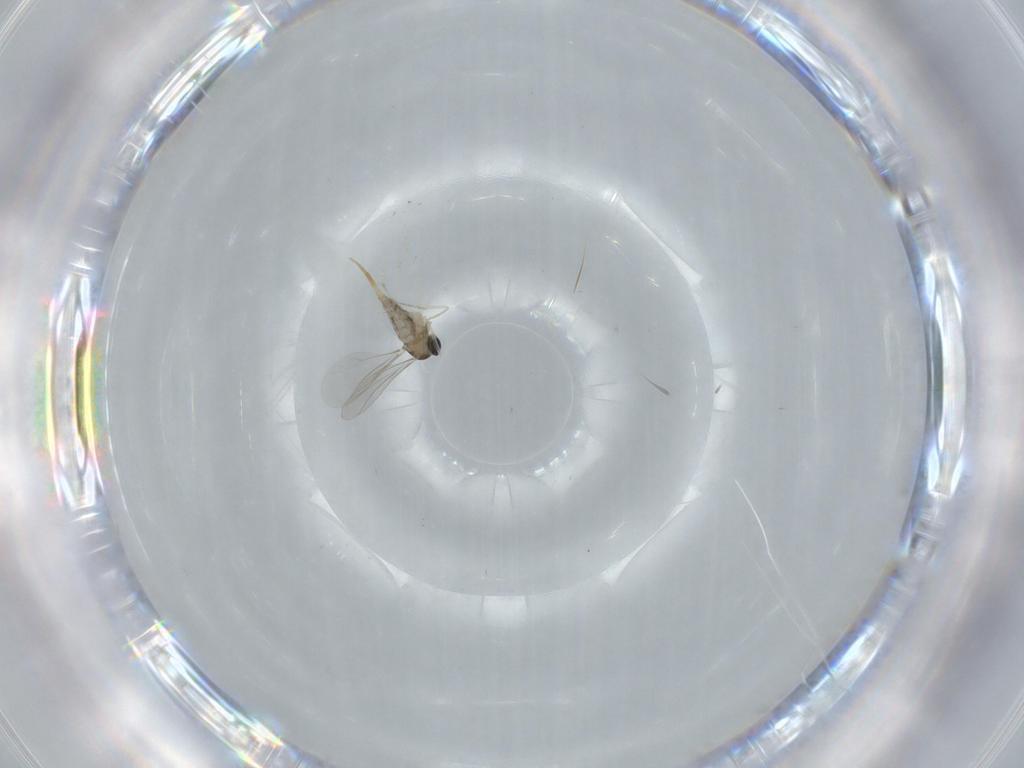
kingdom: Animalia
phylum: Arthropoda
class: Insecta
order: Diptera
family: Cecidomyiidae
